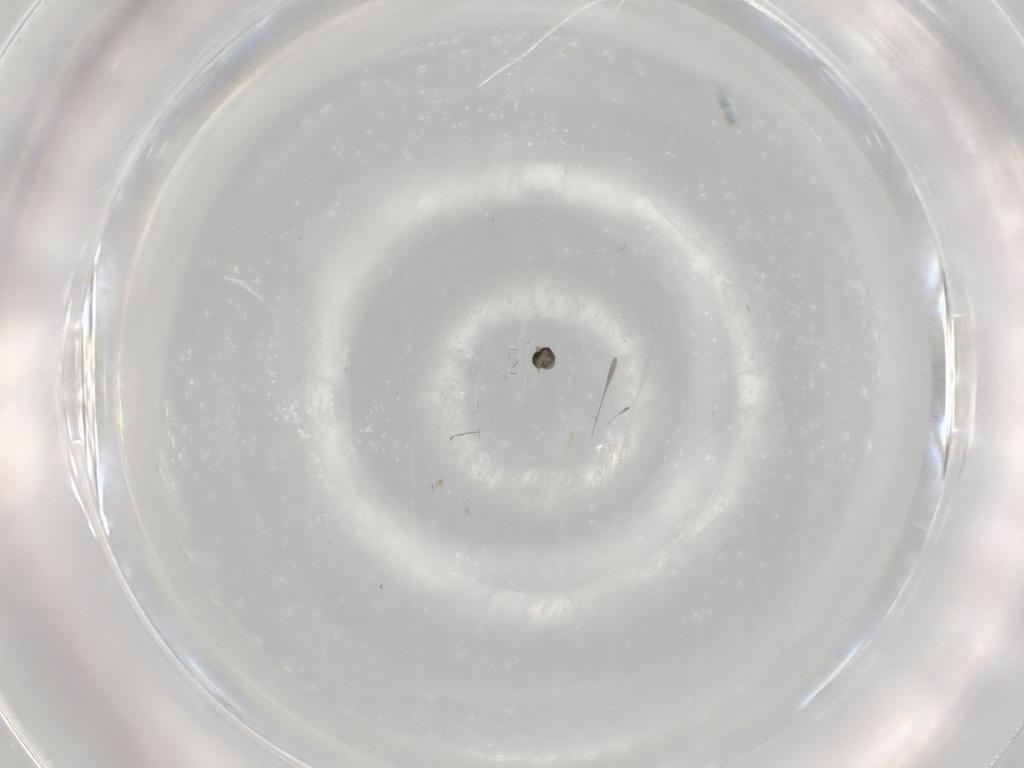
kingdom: Animalia
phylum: Arthropoda
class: Insecta
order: Diptera
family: Cecidomyiidae
